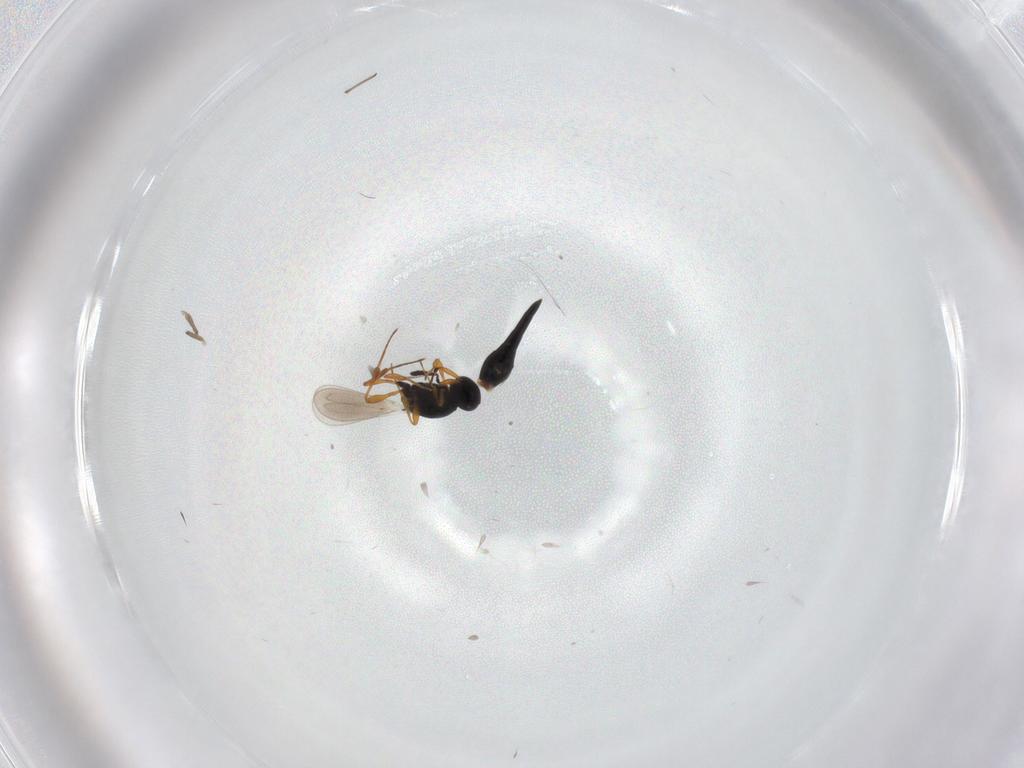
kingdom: Animalia
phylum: Arthropoda
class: Insecta
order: Hymenoptera
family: Platygastridae
